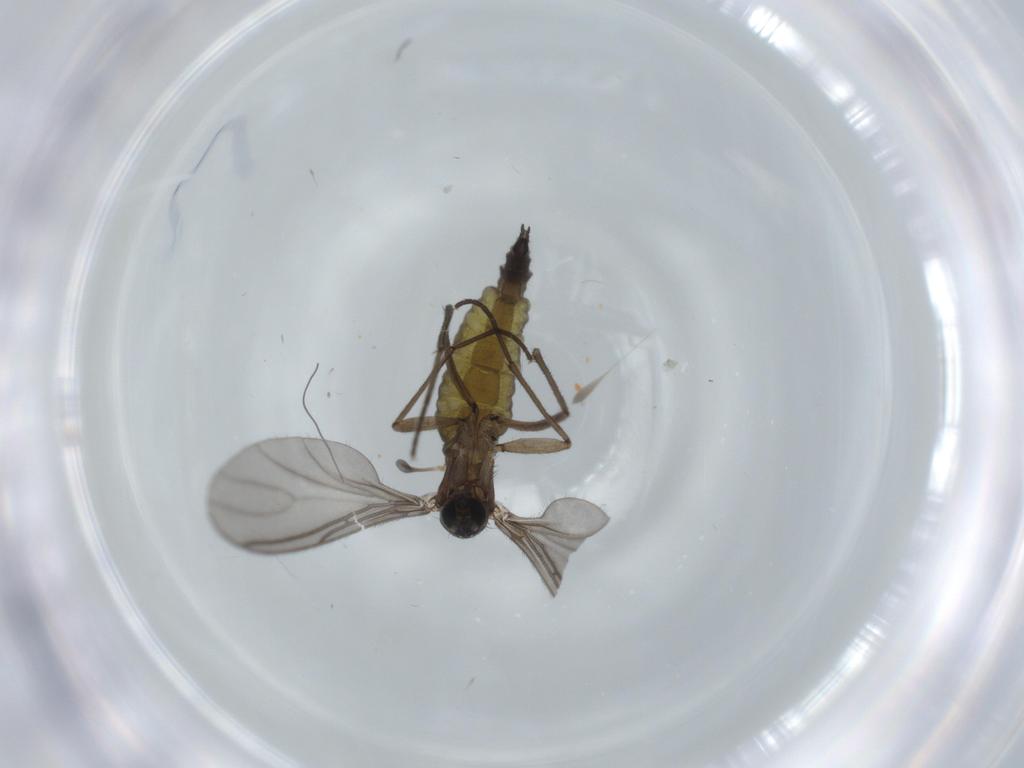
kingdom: Animalia
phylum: Arthropoda
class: Insecta
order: Diptera
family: Sciaridae
